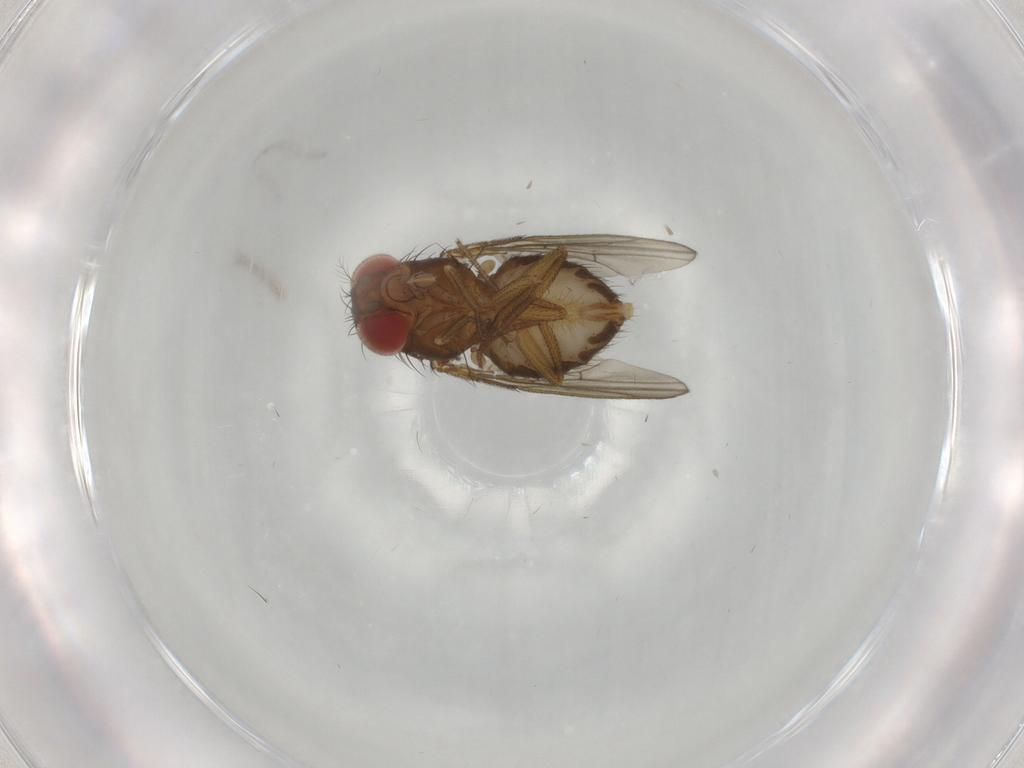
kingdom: Animalia
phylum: Arthropoda
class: Insecta
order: Diptera
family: Drosophilidae
